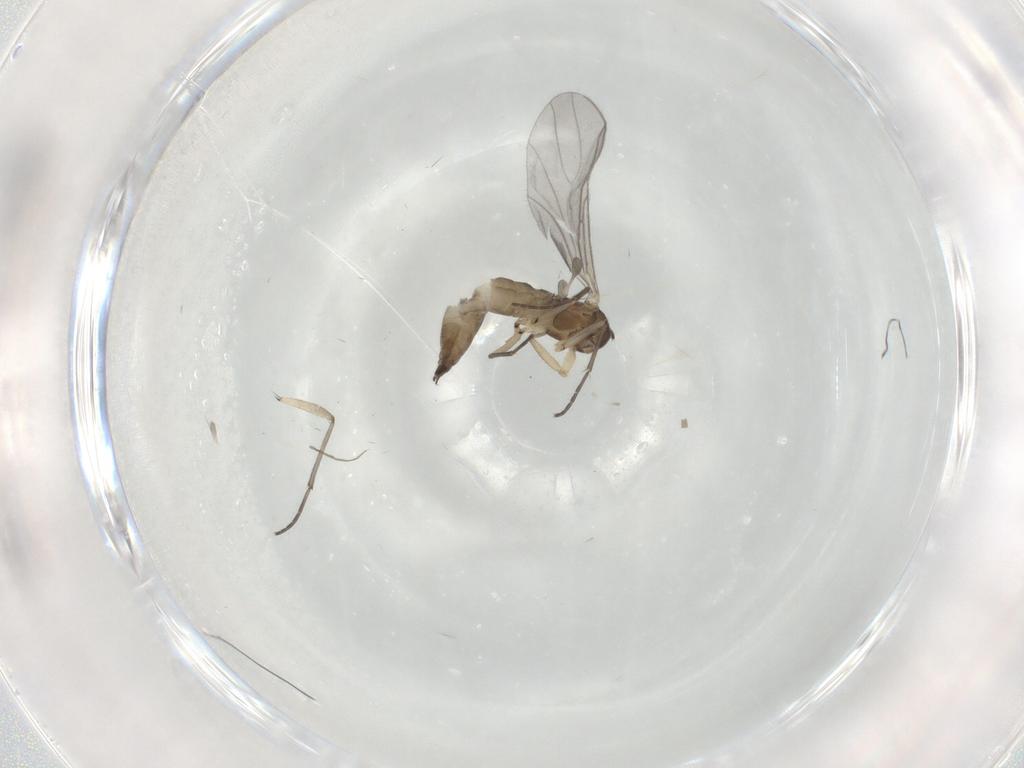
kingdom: Animalia
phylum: Arthropoda
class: Insecta
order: Diptera
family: Sciaridae
